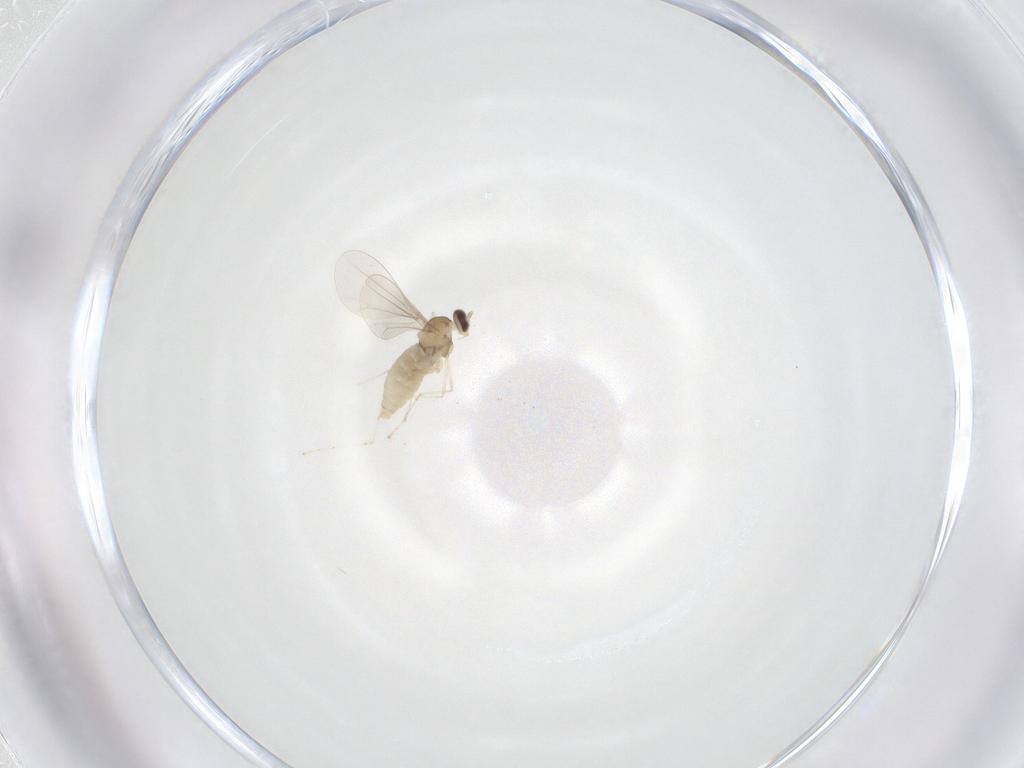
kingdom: Animalia
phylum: Arthropoda
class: Insecta
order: Diptera
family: Cecidomyiidae
